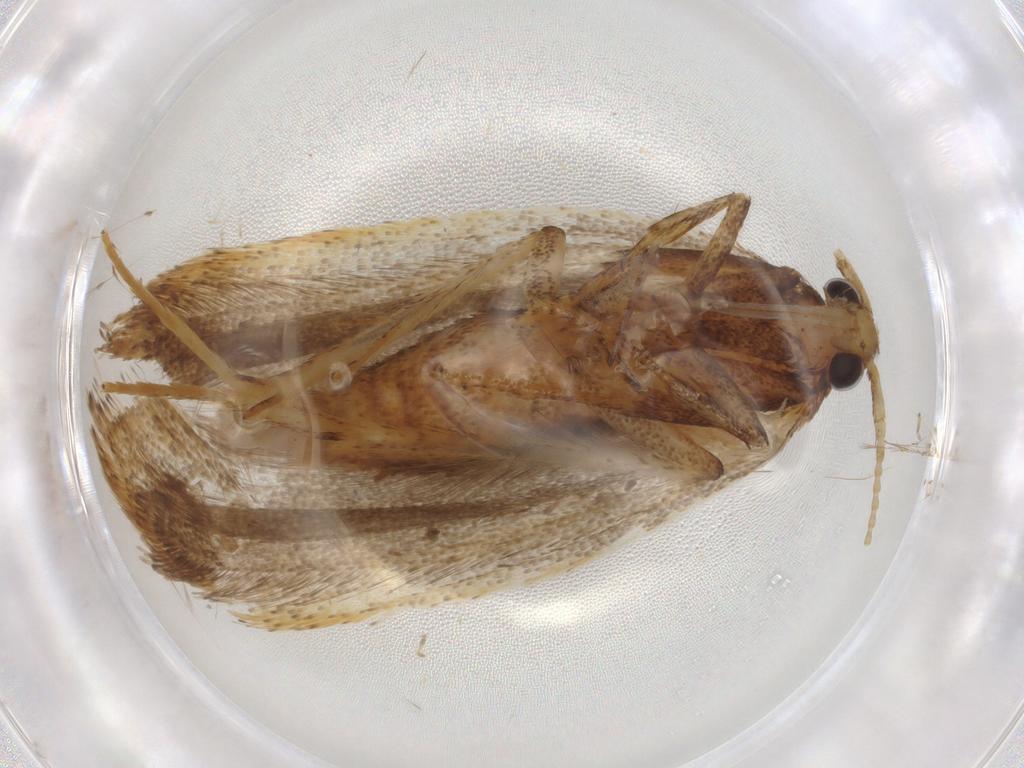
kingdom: Animalia
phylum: Arthropoda
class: Insecta
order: Lepidoptera
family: Lecithoceridae
